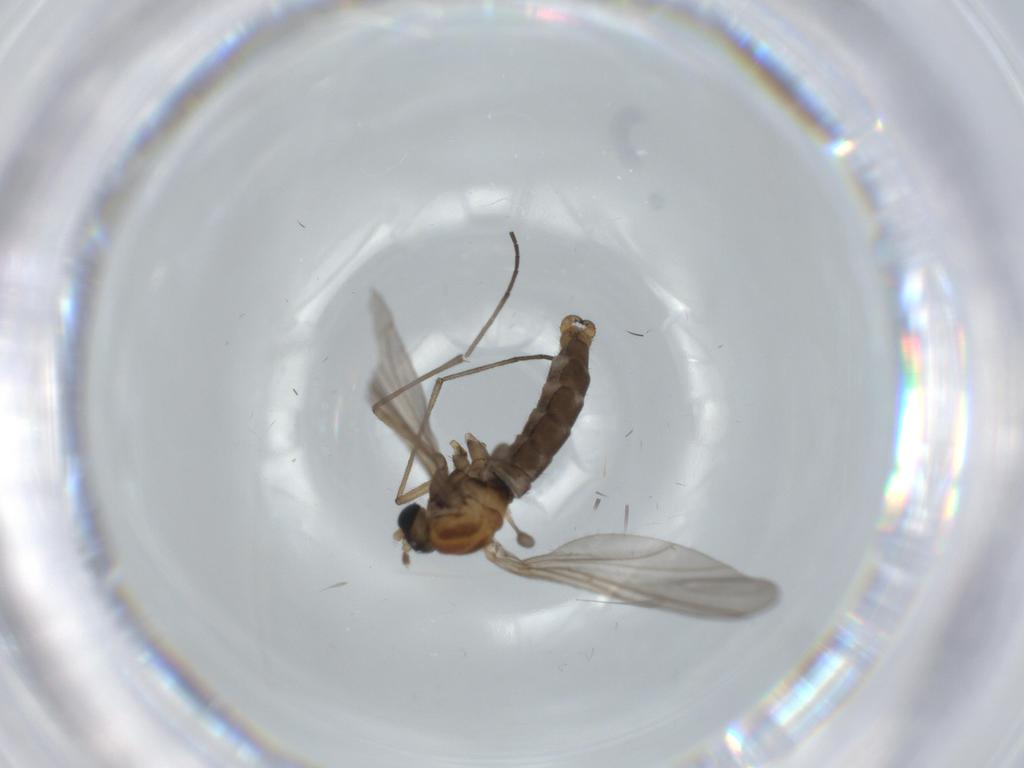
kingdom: Animalia
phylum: Arthropoda
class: Insecta
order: Diptera
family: Sciaridae
